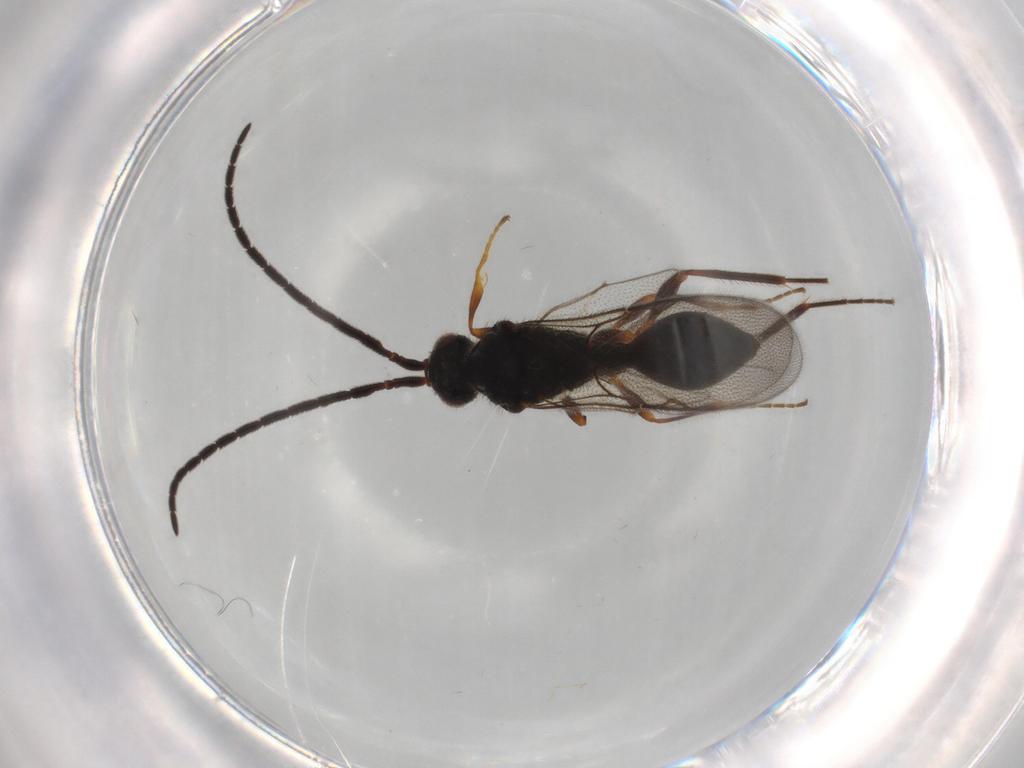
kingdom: Animalia
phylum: Arthropoda
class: Insecta
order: Hymenoptera
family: Diapriidae
